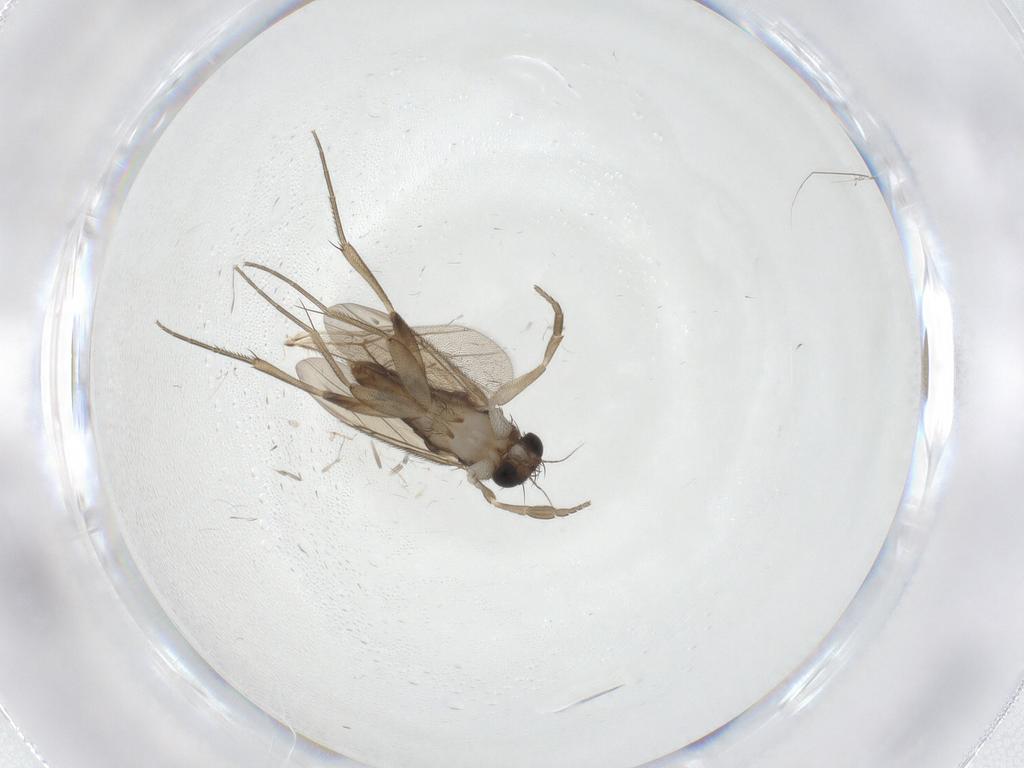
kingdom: Animalia
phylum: Arthropoda
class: Insecta
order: Diptera
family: Phoridae
